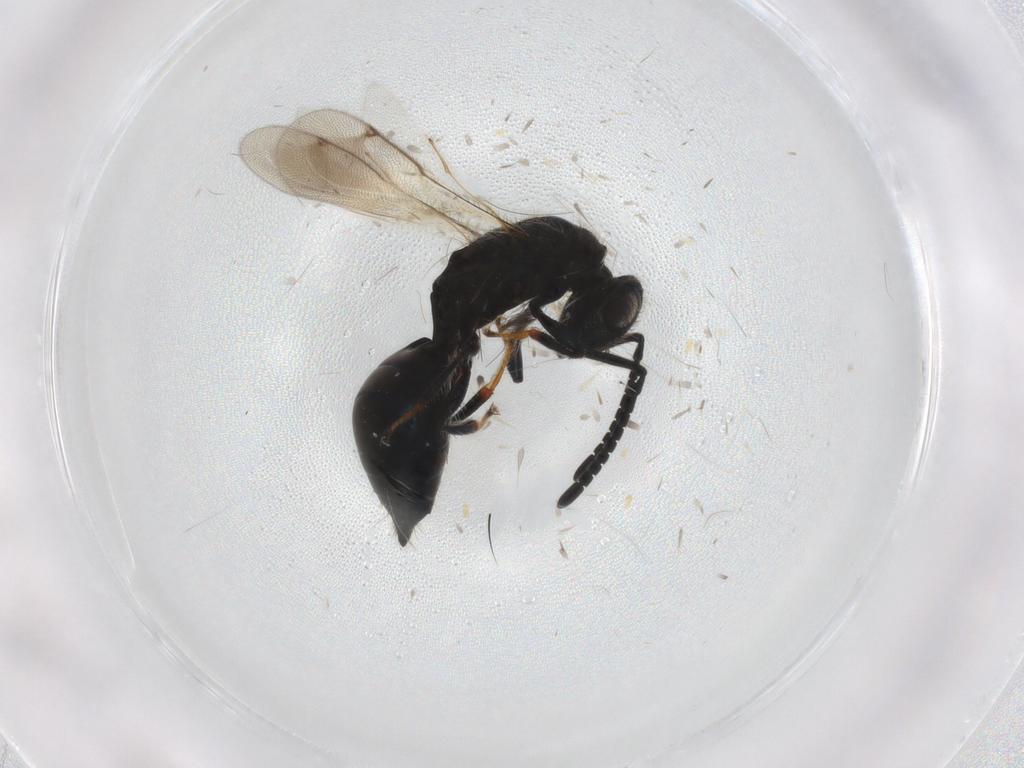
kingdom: Animalia
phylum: Arthropoda
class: Insecta
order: Hymenoptera
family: Braconidae
